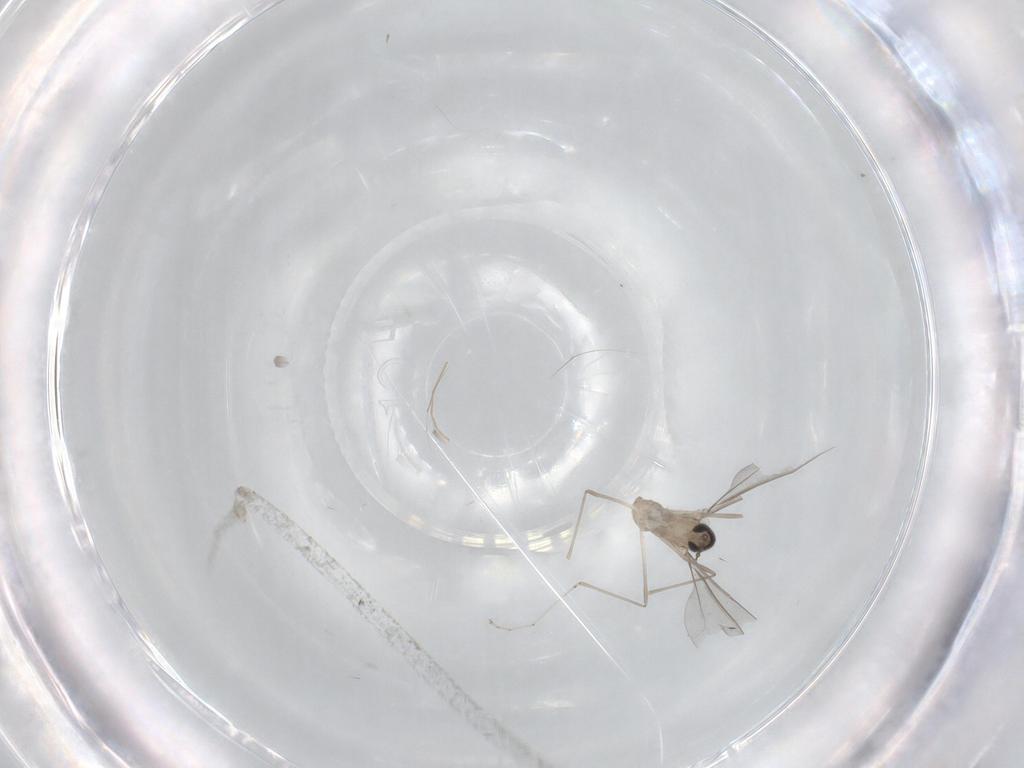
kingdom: Animalia
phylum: Arthropoda
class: Insecta
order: Diptera
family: Cecidomyiidae
